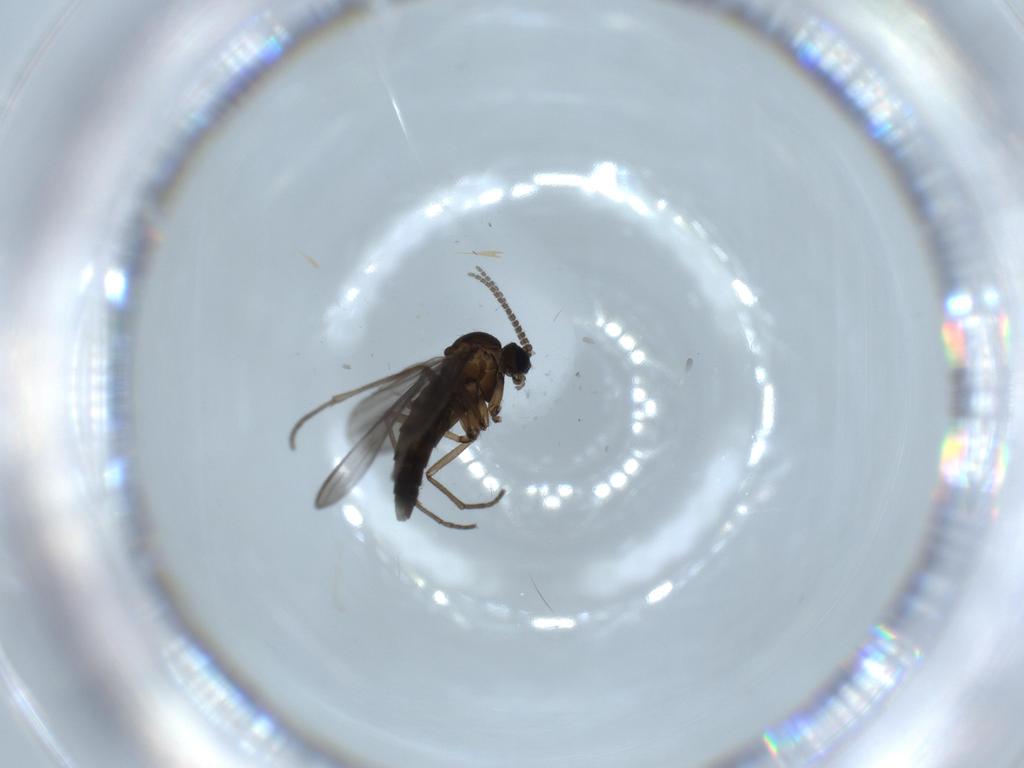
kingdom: Animalia
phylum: Arthropoda
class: Insecta
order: Diptera
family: Sciaridae
